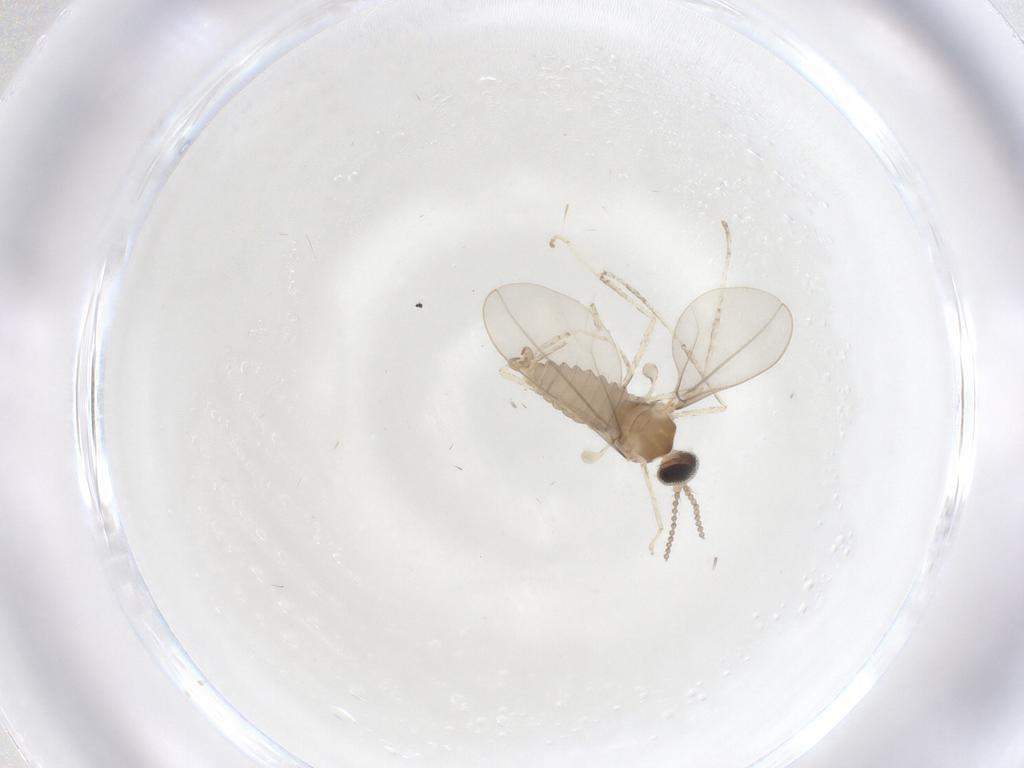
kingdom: Animalia
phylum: Arthropoda
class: Insecta
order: Diptera
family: Cecidomyiidae
